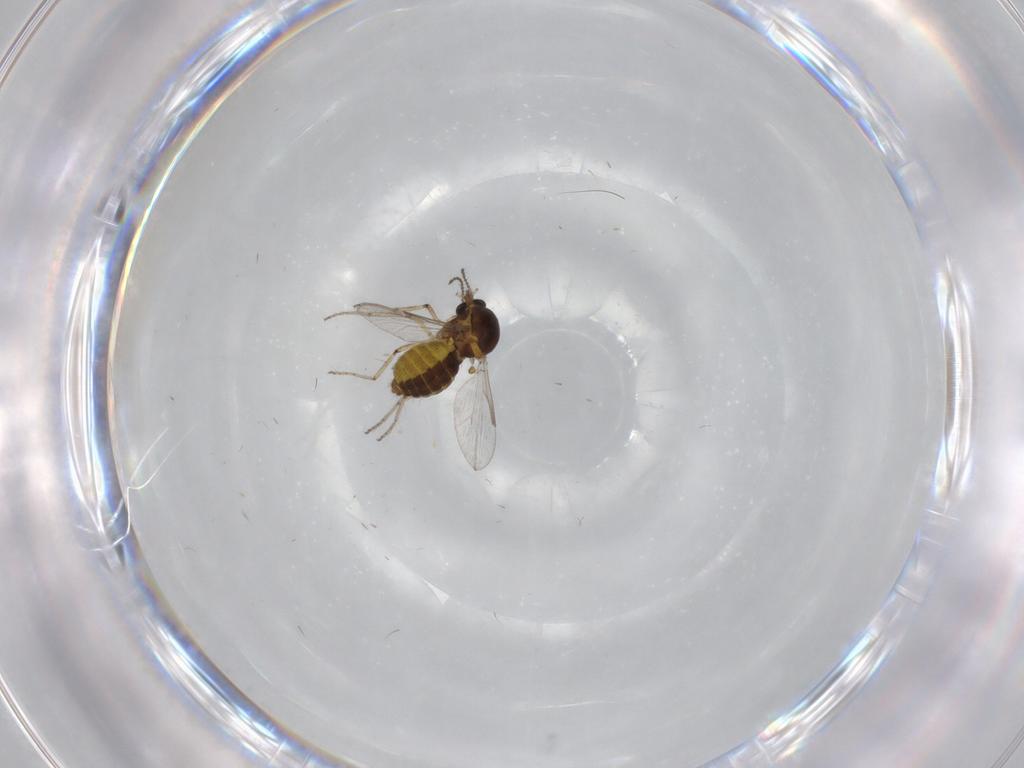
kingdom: Animalia
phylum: Arthropoda
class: Insecta
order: Diptera
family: Ceratopogonidae
